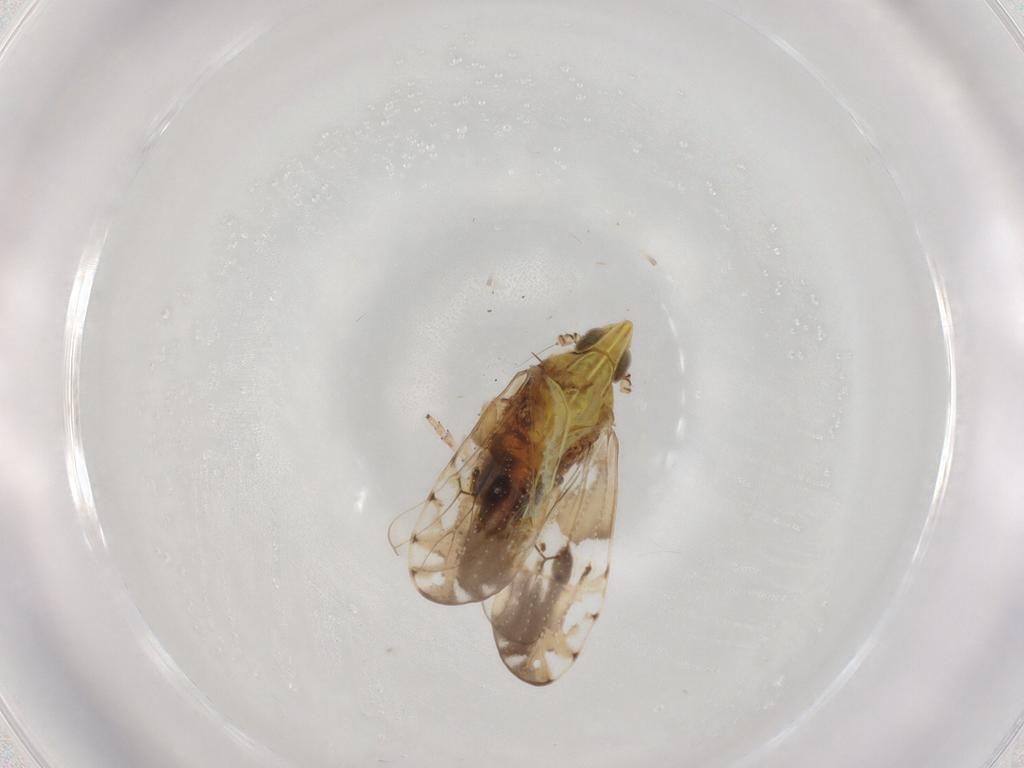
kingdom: Animalia
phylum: Arthropoda
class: Insecta
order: Hemiptera
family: Delphacidae
